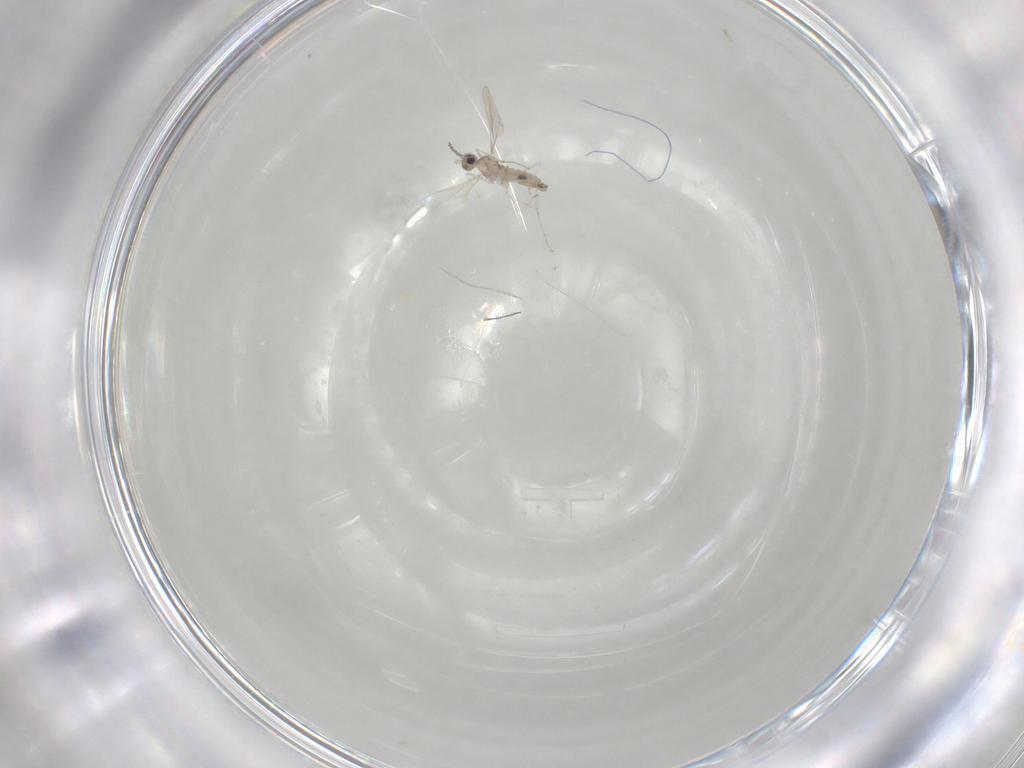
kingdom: Animalia
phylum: Arthropoda
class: Insecta
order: Diptera
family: Cecidomyiidae
